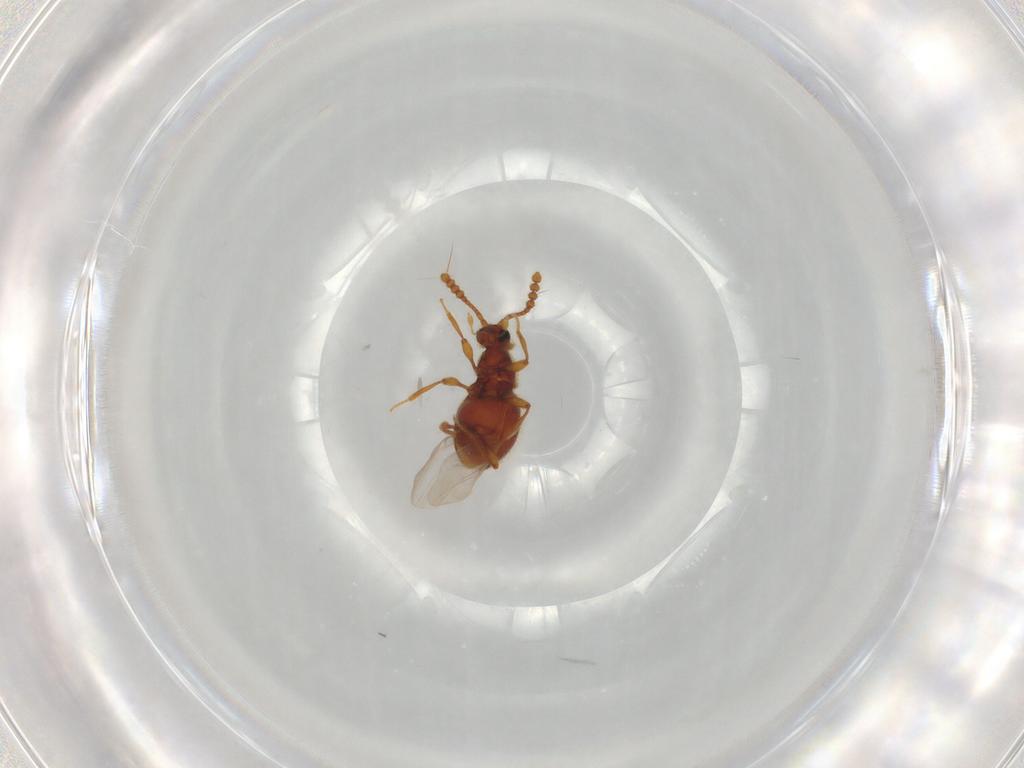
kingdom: Animalia
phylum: Arthropoda
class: Insecta
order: Coleoptera
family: Staphylinidae
